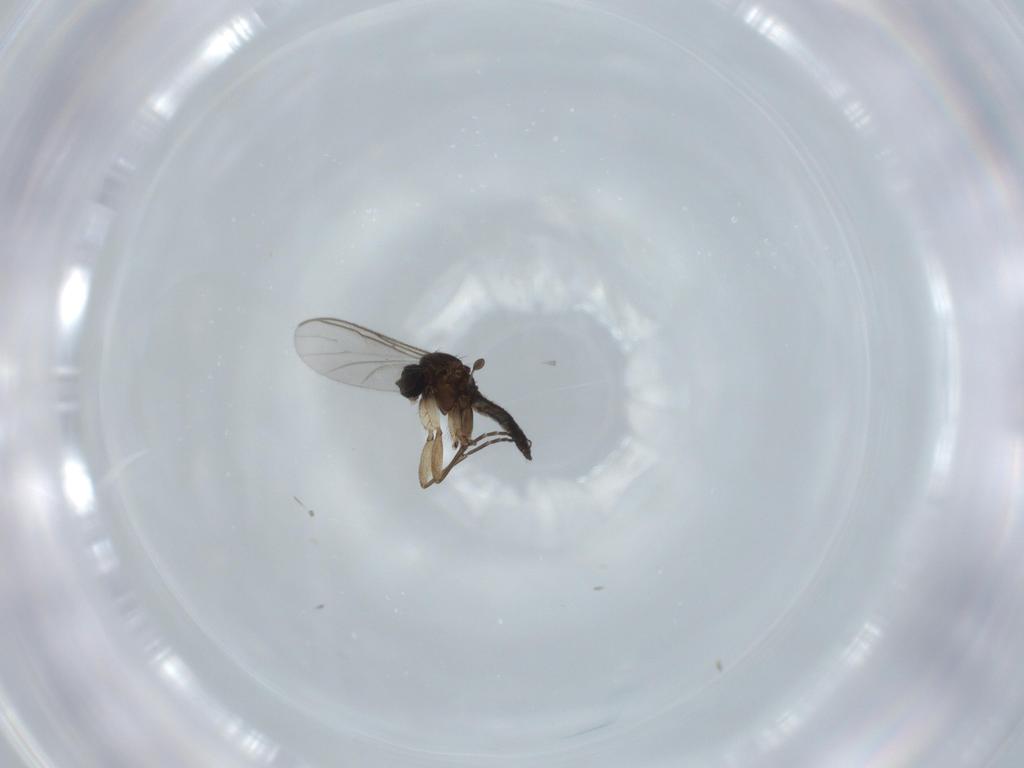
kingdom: Animalia
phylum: Arthropoda
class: Insecta
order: Diptera
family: Sciaridae
